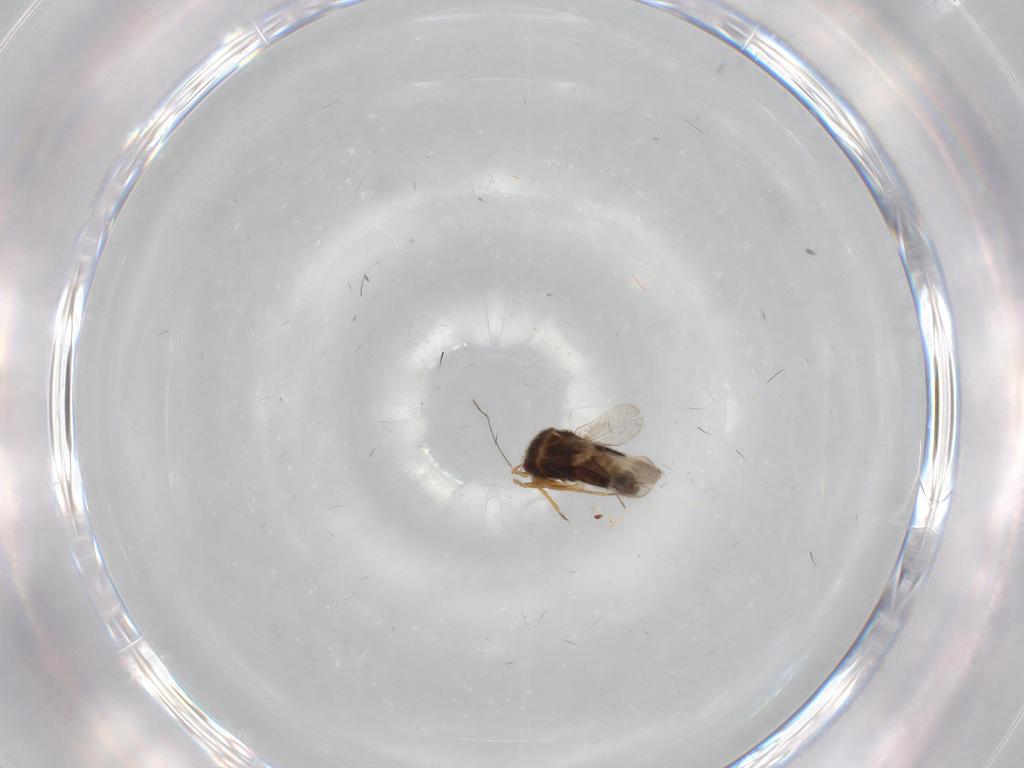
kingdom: Animalia
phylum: Arthropoda
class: Insecta
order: Hemiptera
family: Schizopteridae
